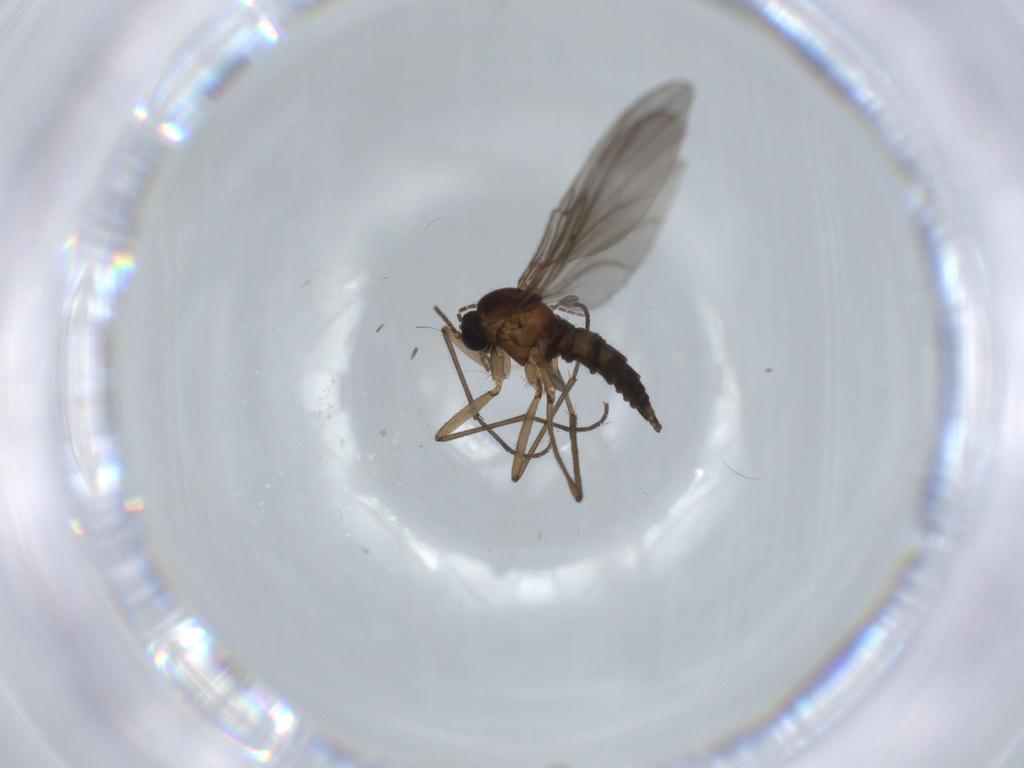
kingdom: Animalia
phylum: Arthropoda
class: Insecta
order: Diptera
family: Sciaridae
